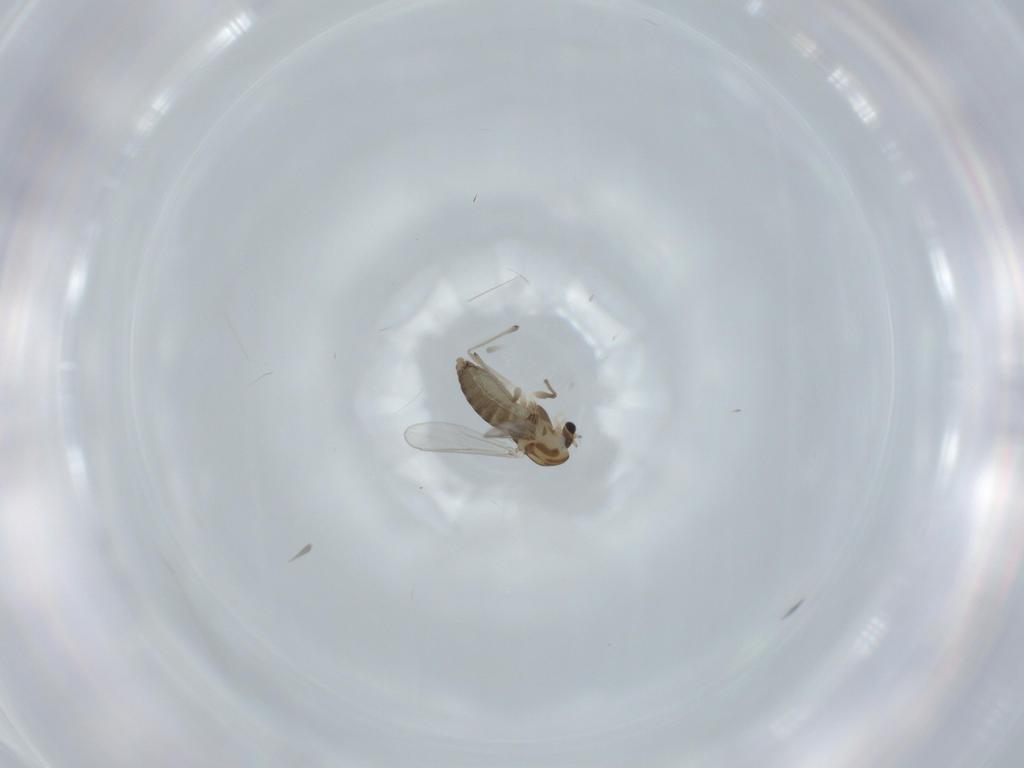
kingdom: Animalia
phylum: Arthropoda
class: Insecta
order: Diptera
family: Chironomidae
